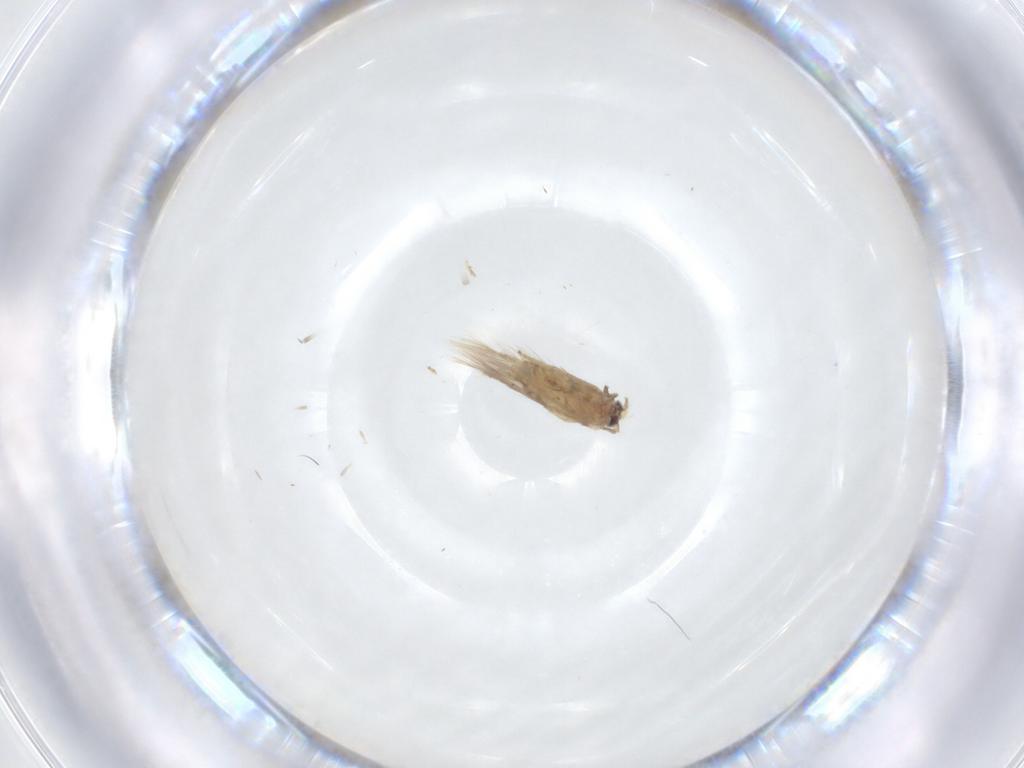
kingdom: Animalia
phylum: Arthropoda
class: Insecta
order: Lepidoptera
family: Nepticulidae
